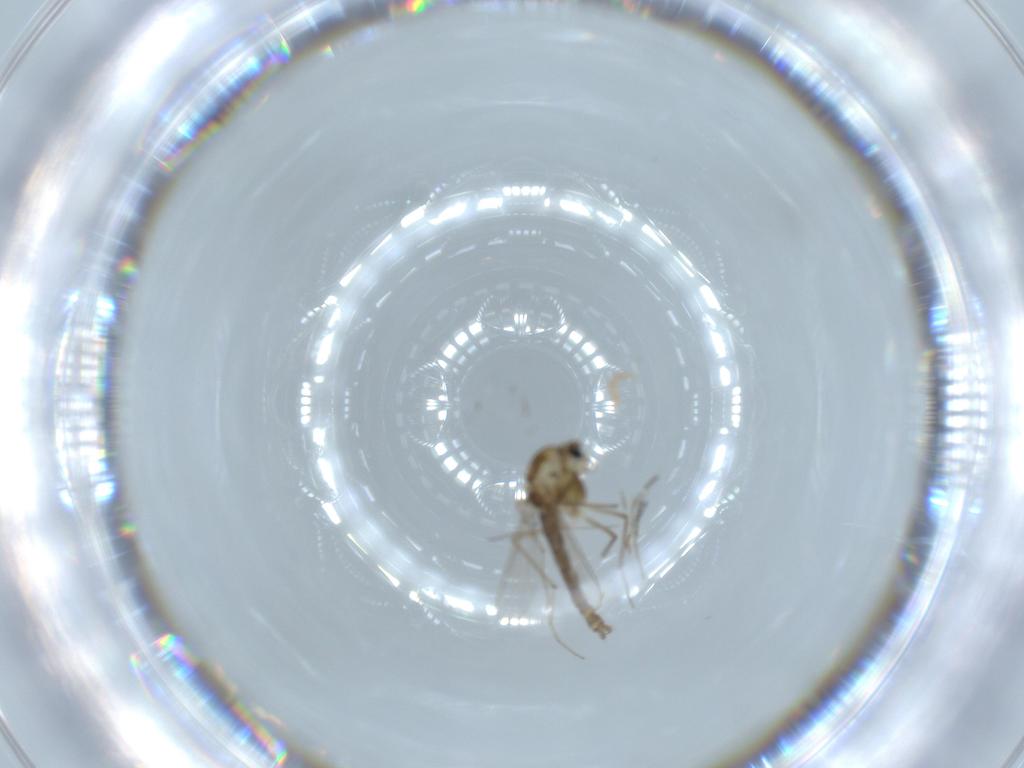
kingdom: Animalia
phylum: Arthropoda
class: Insecta
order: Diptera
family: Chironomidae
